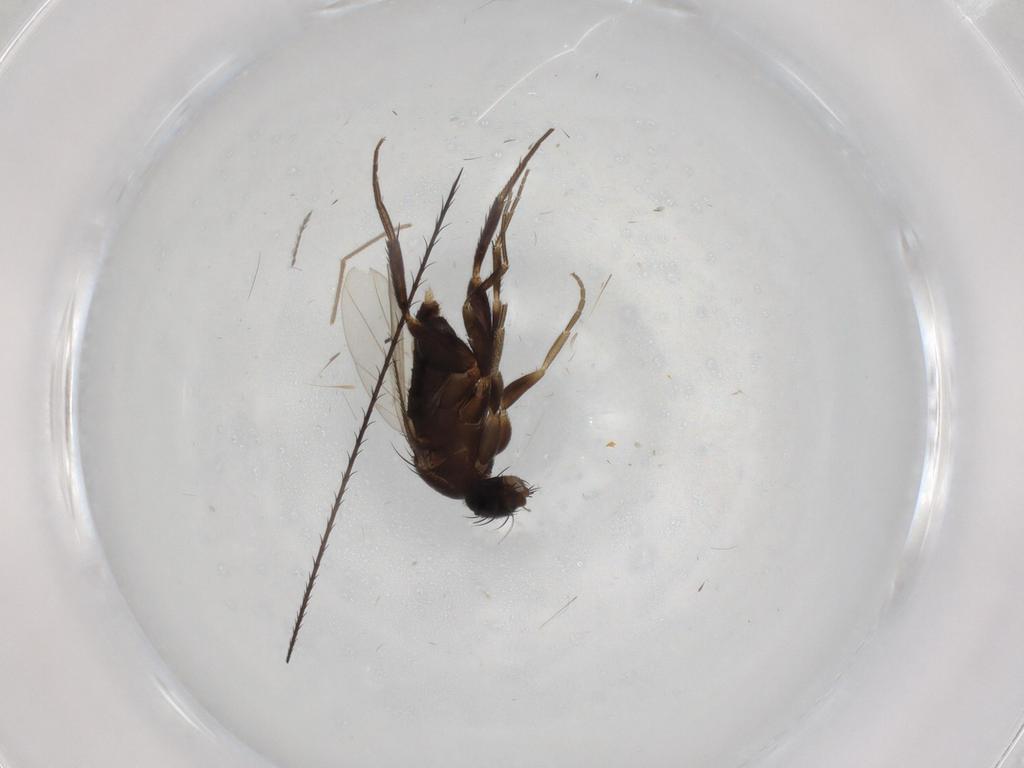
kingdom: Animalia
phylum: Arthropoda
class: Insecta
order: Diptera
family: Phoridae
